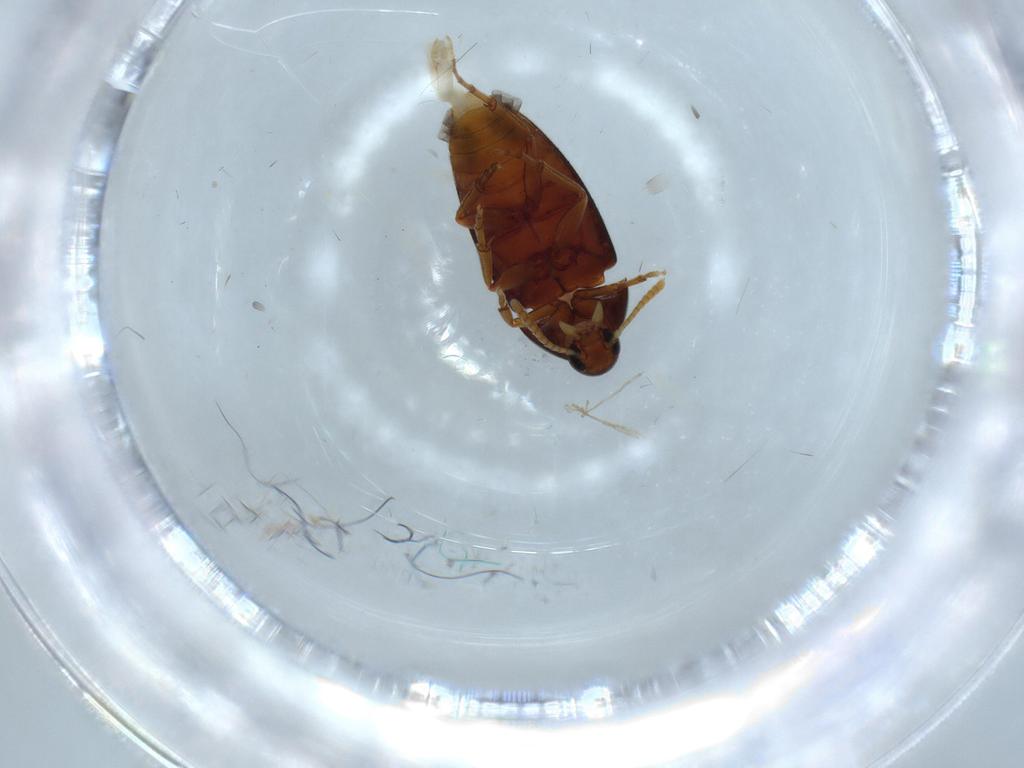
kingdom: Animalia
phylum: Arthropoda
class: Insecta
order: Coleoptera
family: Scraptiidae
